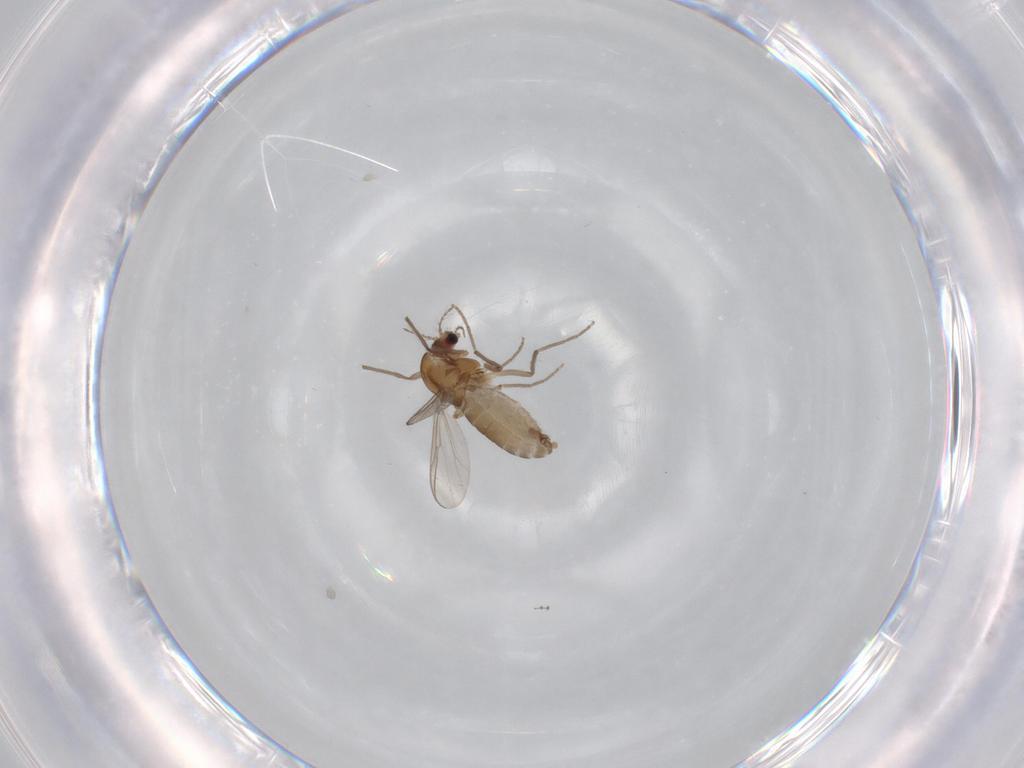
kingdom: Animalia
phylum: Arthropoda
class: Insecta
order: Diptera
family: Chironomidae
